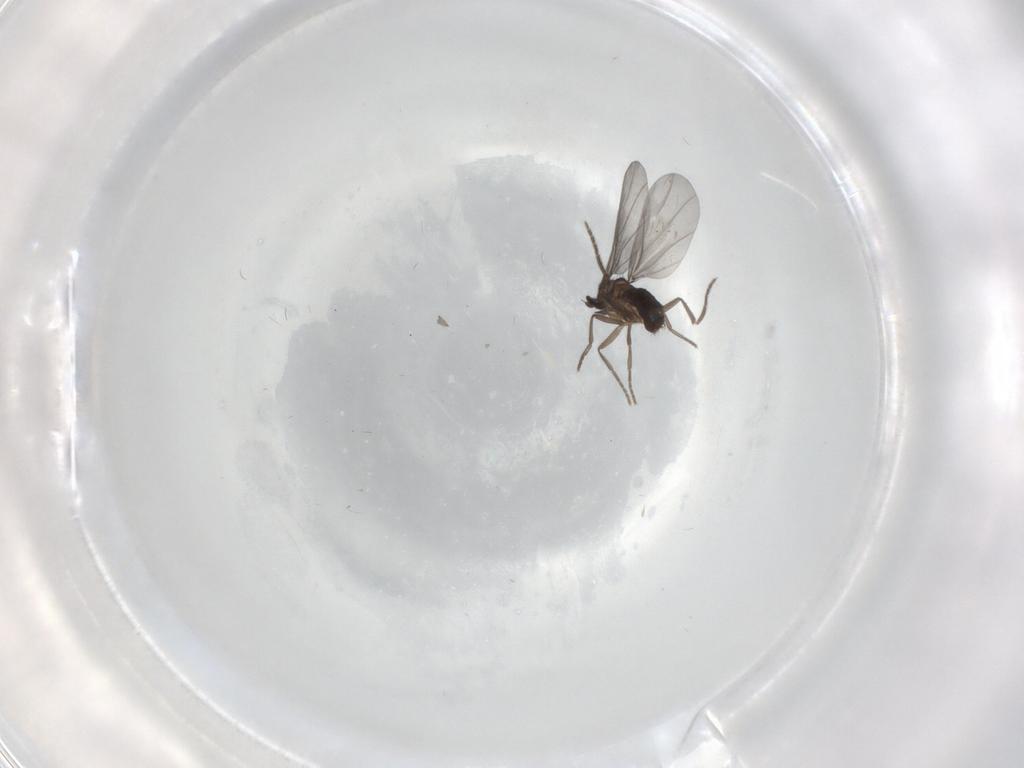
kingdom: Animalia
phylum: Arthropoda
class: Insecta
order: Diptera
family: Phoridae
